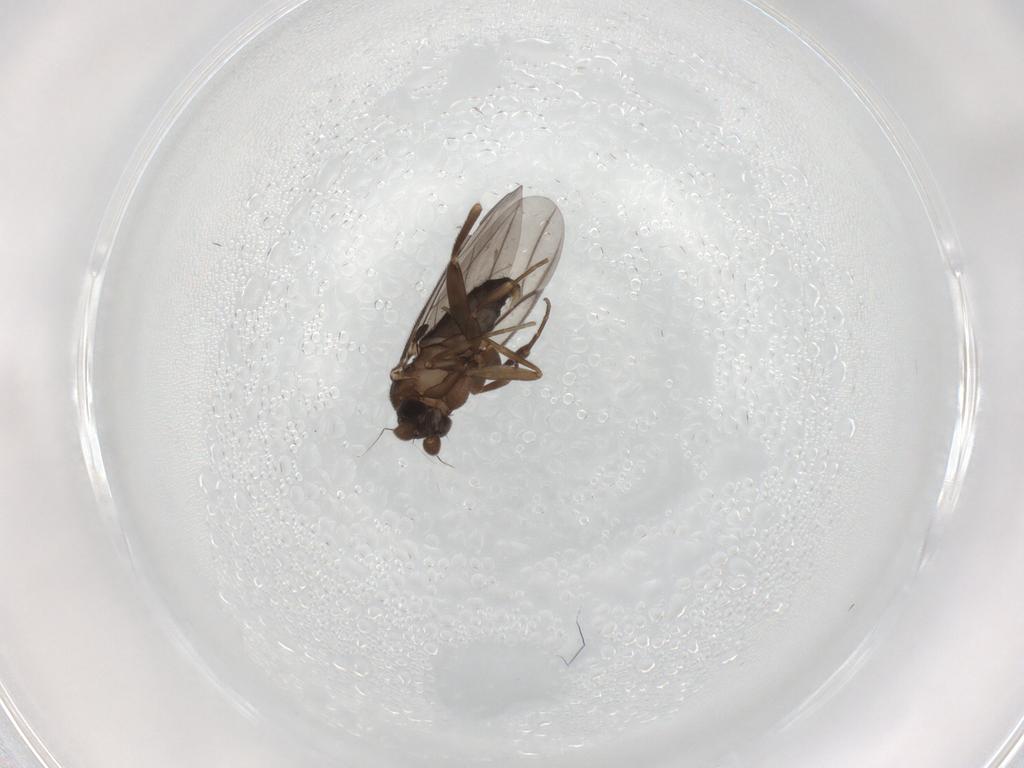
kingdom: Animalia
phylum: Arthropoda
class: Insecta
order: Diptera
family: Phoridae
